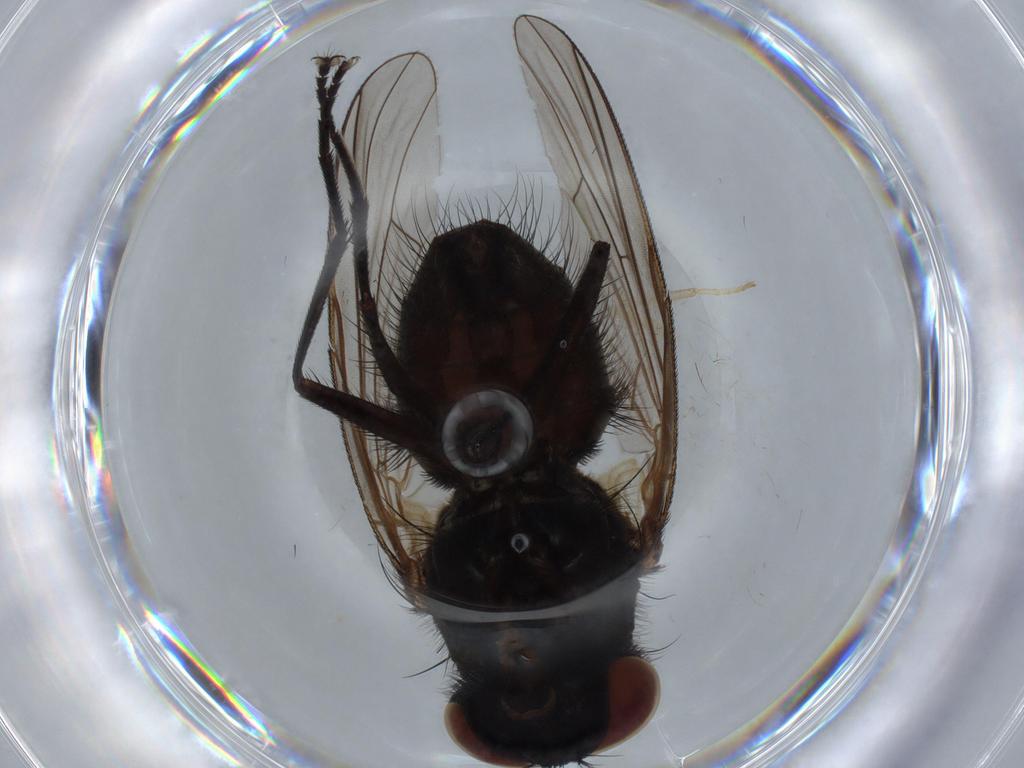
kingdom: Animalia
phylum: Arthropoda
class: Insecta
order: Diptera
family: Muscidae
